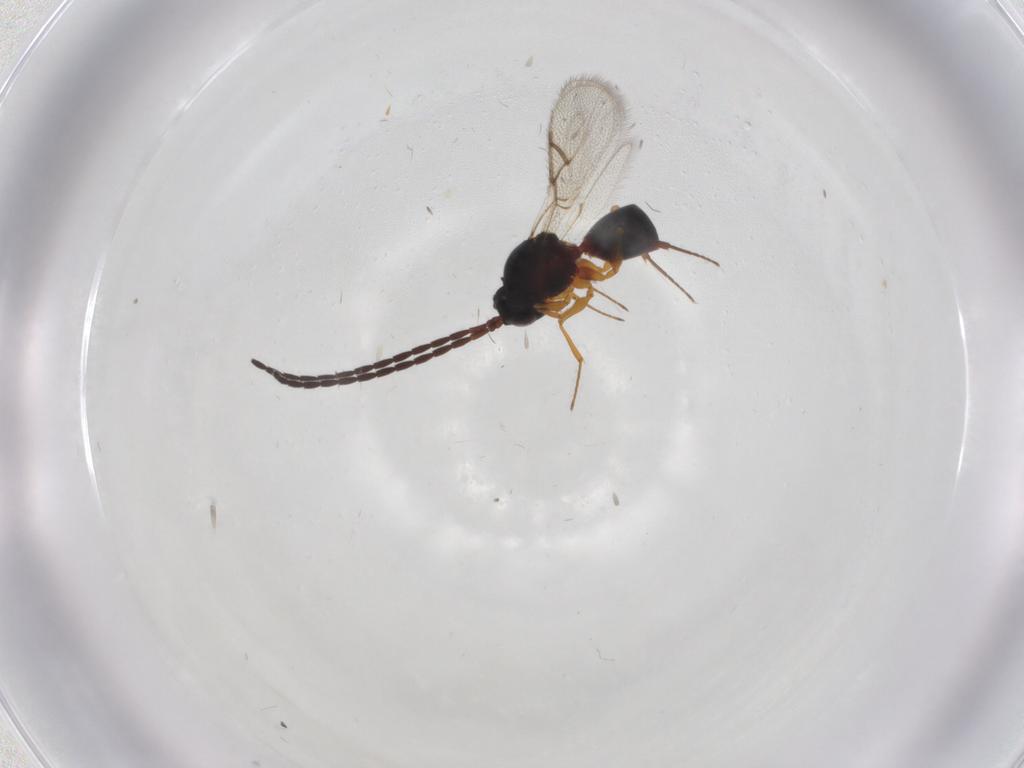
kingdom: Animalia
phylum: Arthropoda
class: Insecta
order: Hymenoptera
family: Figitidae
